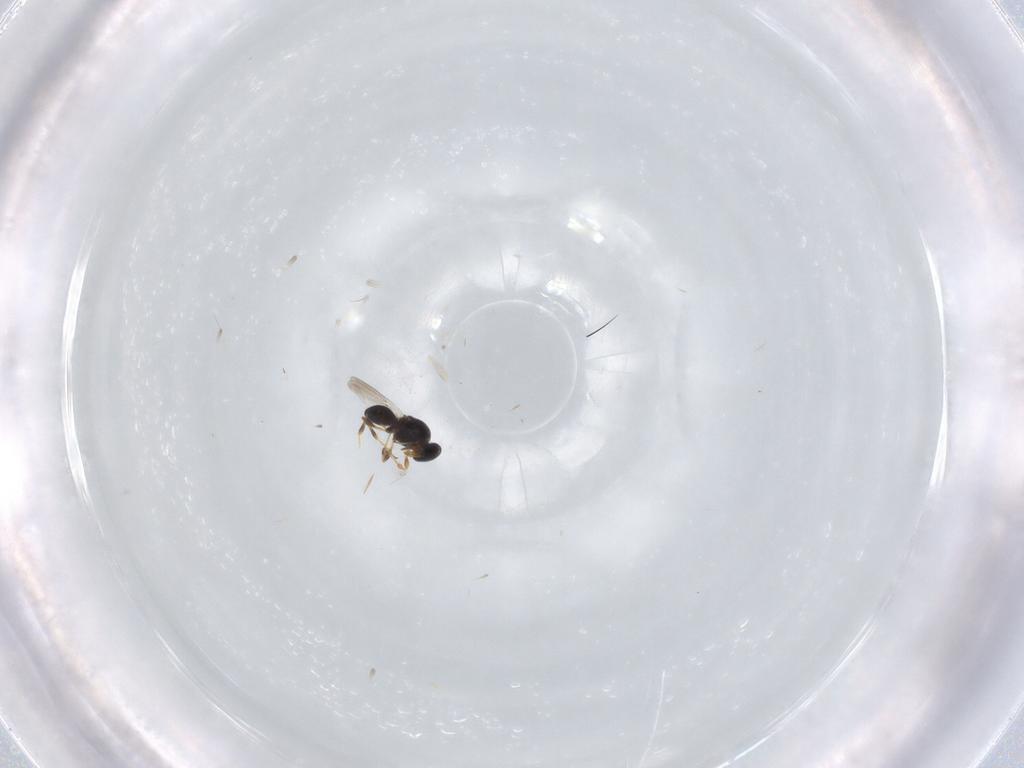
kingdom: Animalia
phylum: Arthropoda
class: Insecta
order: Hymenoptera
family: Platygastridae
